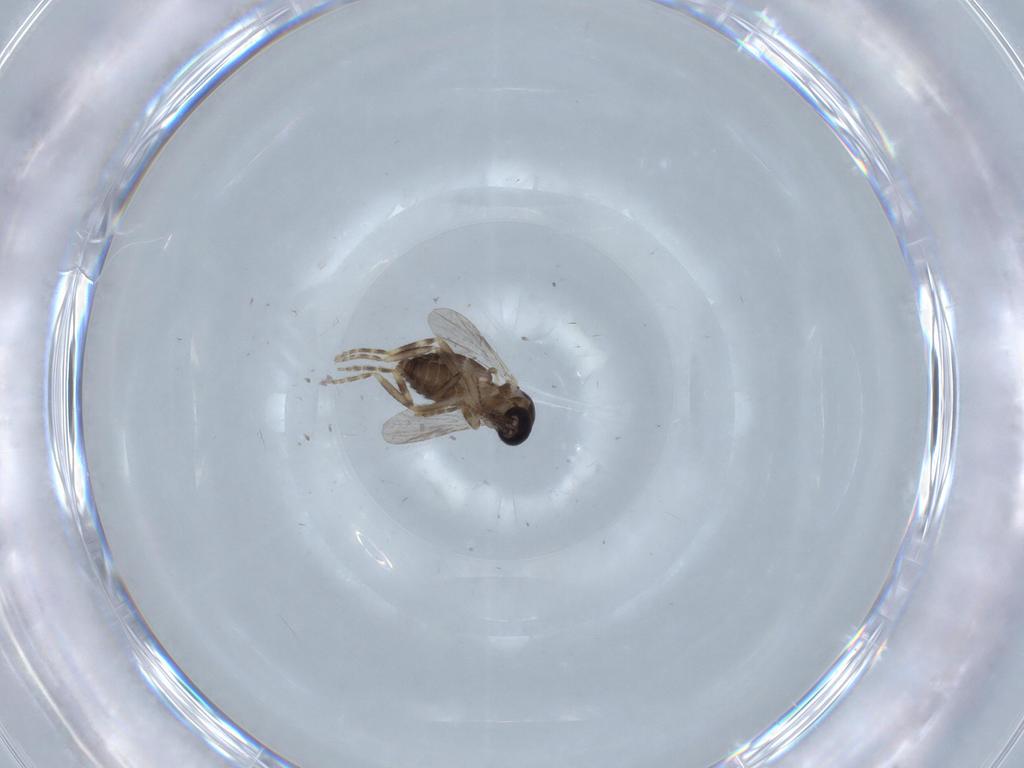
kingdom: Animalia
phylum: Arthropoda
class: Insecta
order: Diptera
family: Ceratopogonidae
